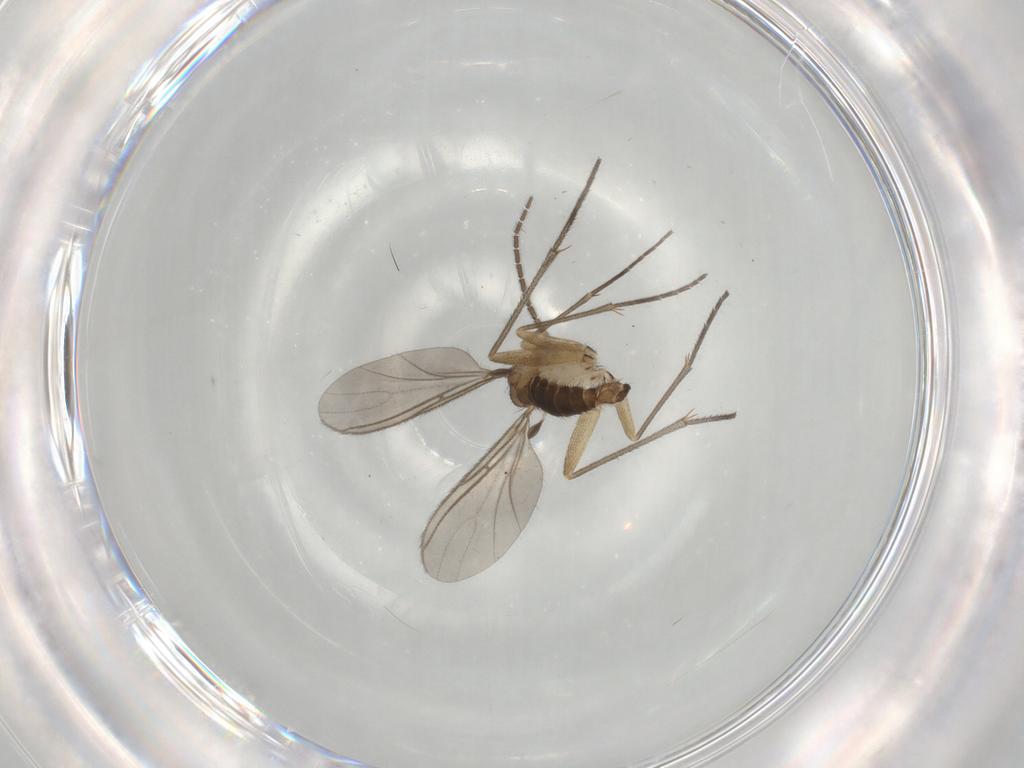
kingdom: Animalia
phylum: Arthropoda
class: Insecta
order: Diptera
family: Sciaridae
